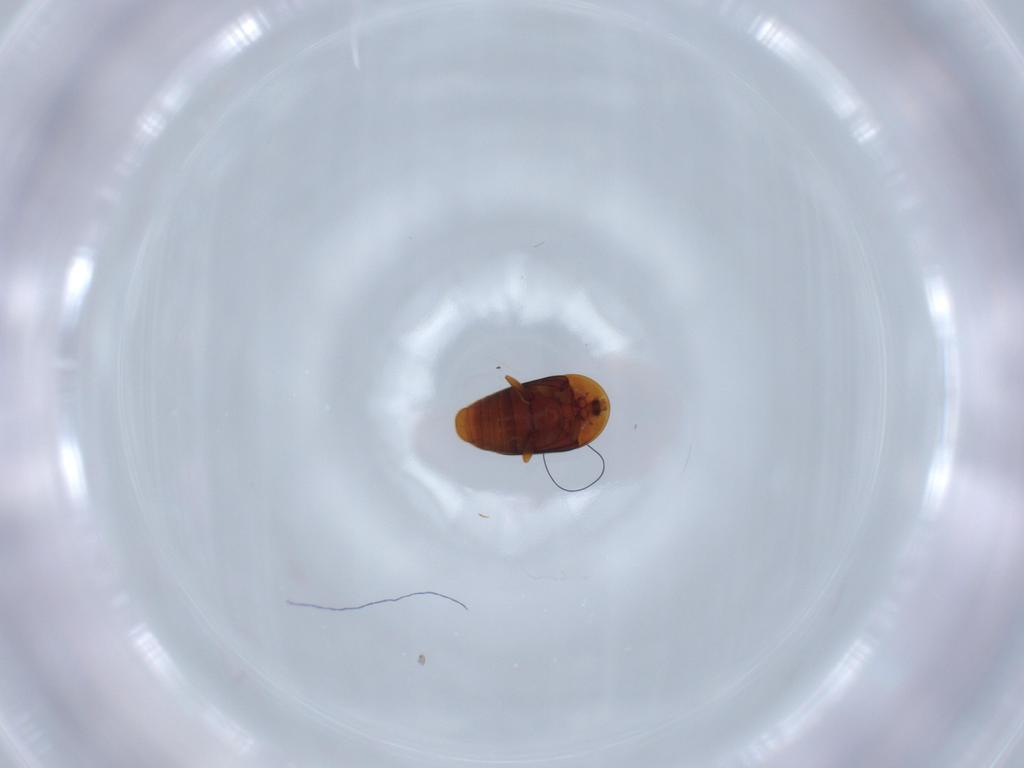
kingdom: Animalia
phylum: Arthropoda
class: Insecta
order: Coleoptera
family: Corylophidae
